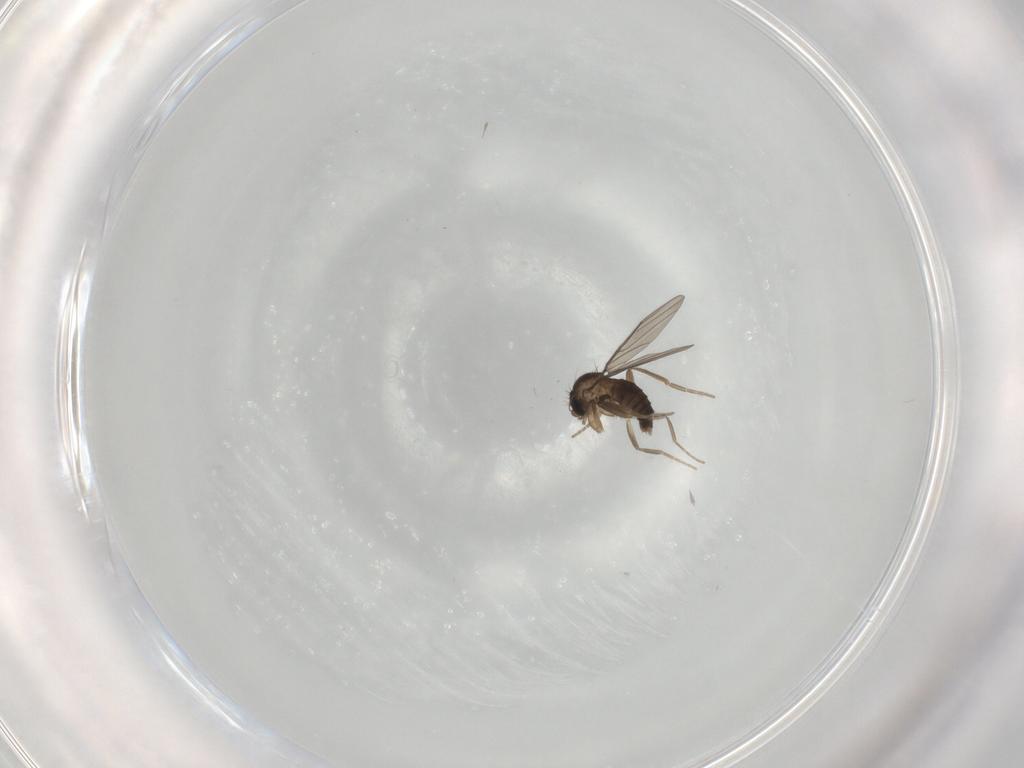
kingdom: Animalia
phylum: Arthropoda
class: Insecta
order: Diptera
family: Phoridae
